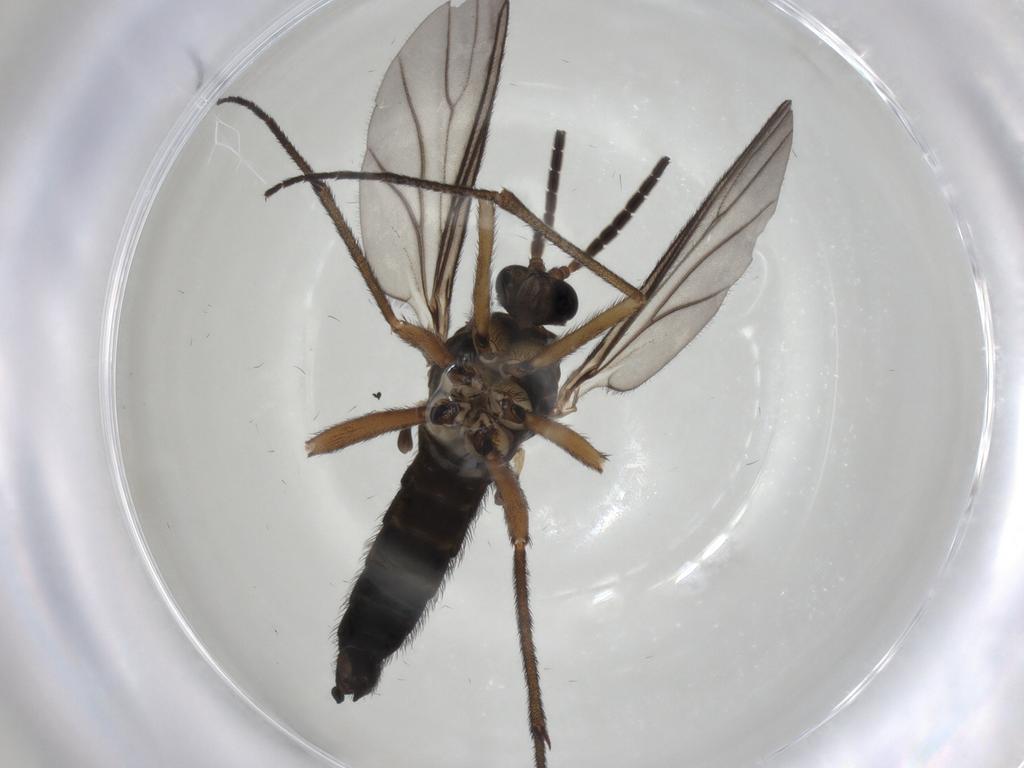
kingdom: Animalia
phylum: Arthropoda
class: Insecta
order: Diptera
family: Sciaridae
